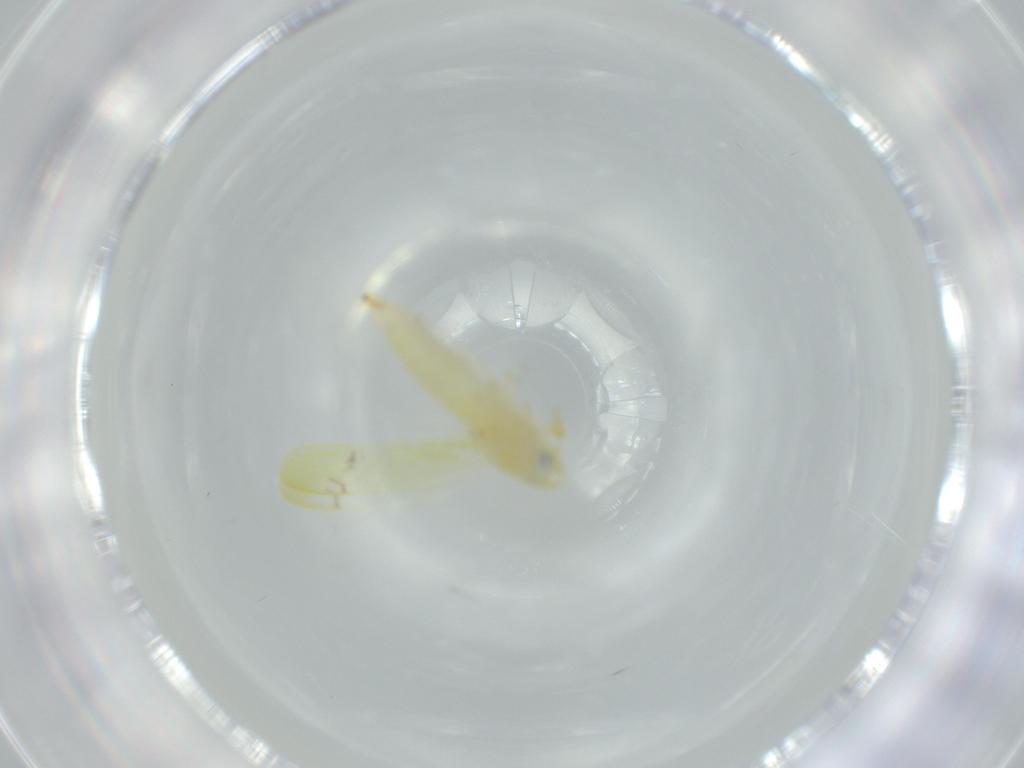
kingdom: Animalia
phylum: Arthropoda
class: Insecta
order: Hemiptera
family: Cicadellidae
